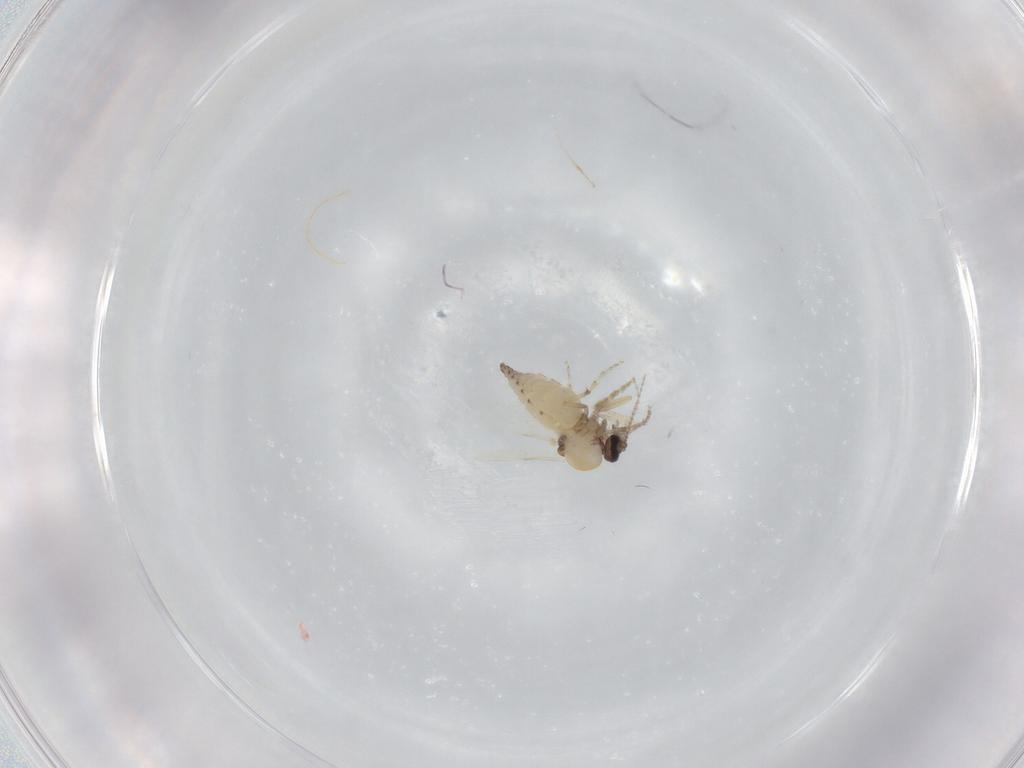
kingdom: Animalia
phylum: Arthropoda
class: Insecta
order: Diptera
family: Ceratopogonidae
